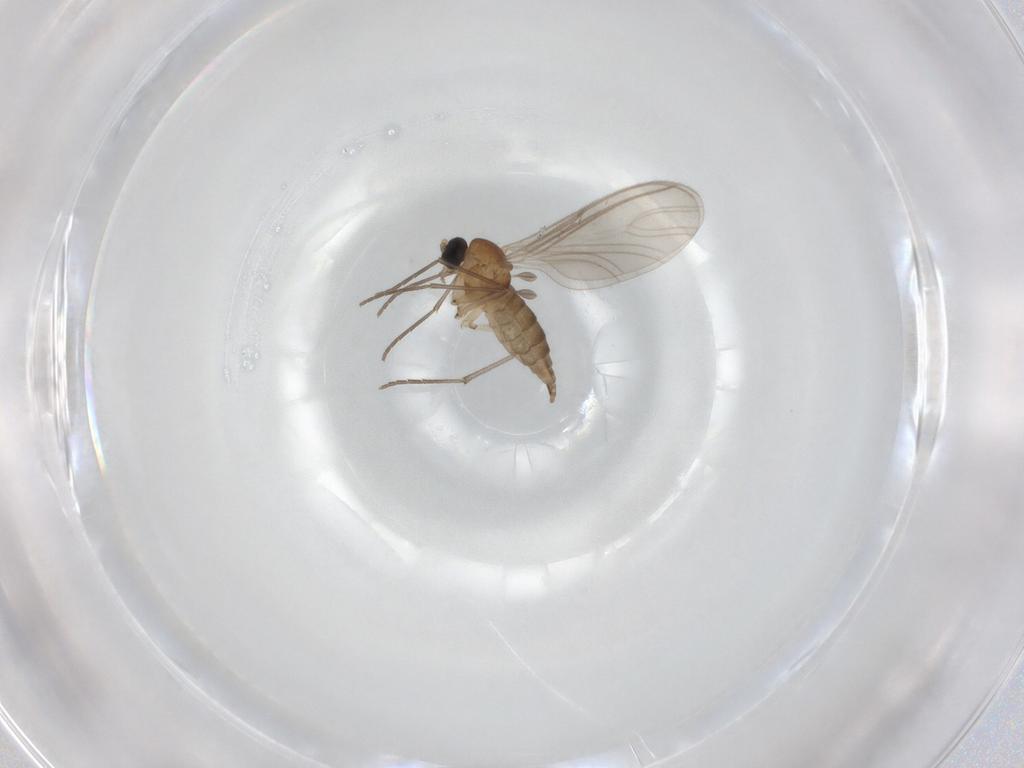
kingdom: Animalia
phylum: Arthropoda
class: Insecta
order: Diptera
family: Sciaridae
